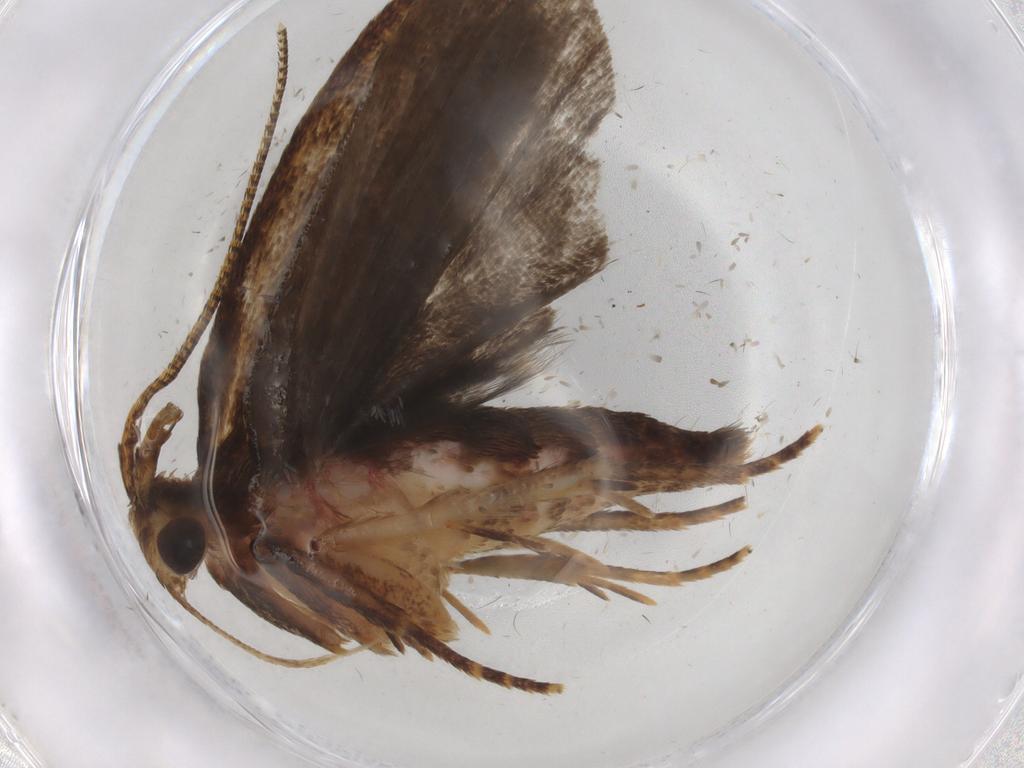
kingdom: Animalia
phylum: Arthropoda
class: Insecta
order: Lepidoptera
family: Autostichidae
